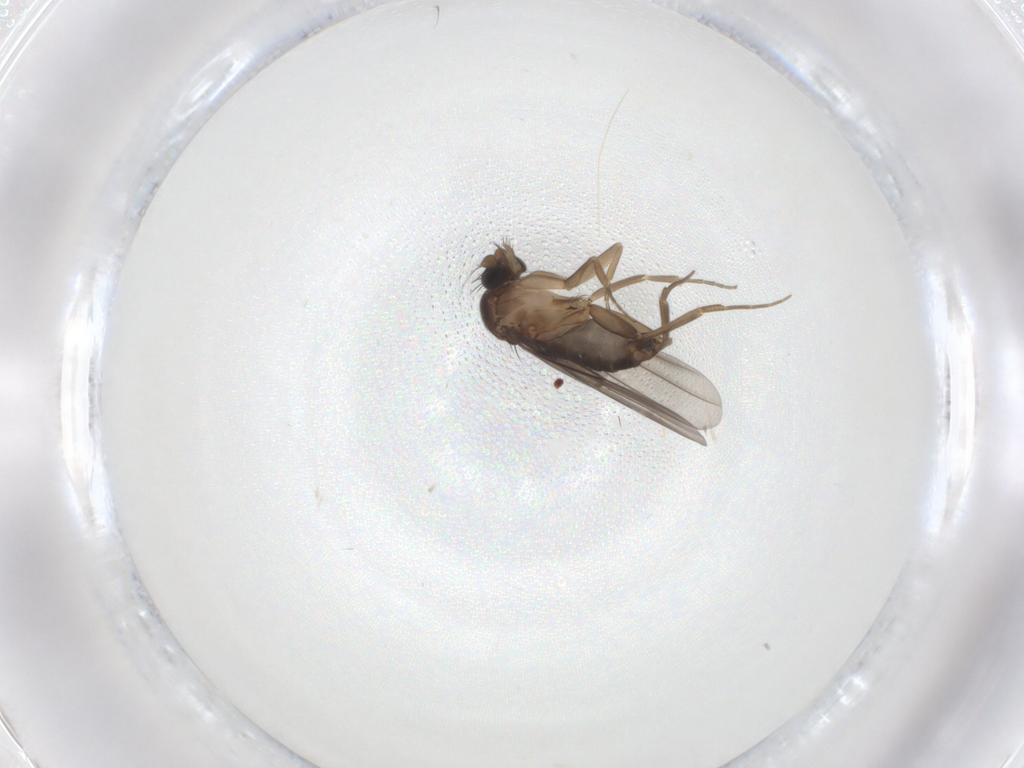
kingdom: Animalia
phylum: Arthropoda
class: Insecta
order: Diptera
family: Phoridae
